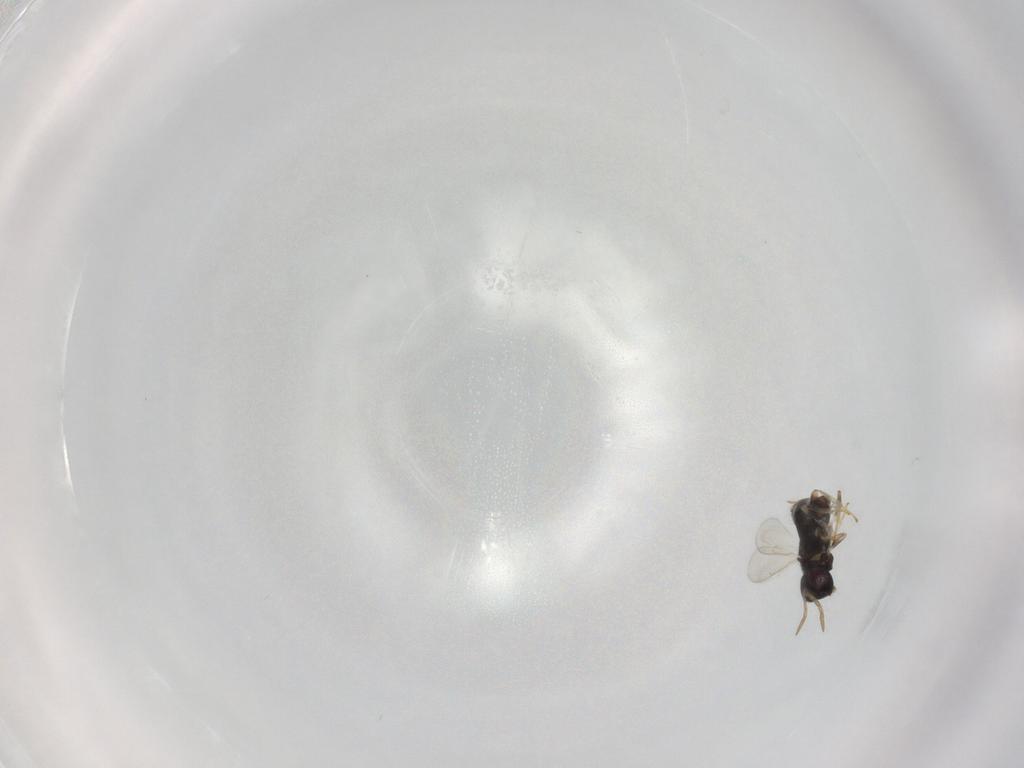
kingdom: Animalia
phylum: Arthropoda
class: Insecta
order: Hymenoptera
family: Aphelinidae
